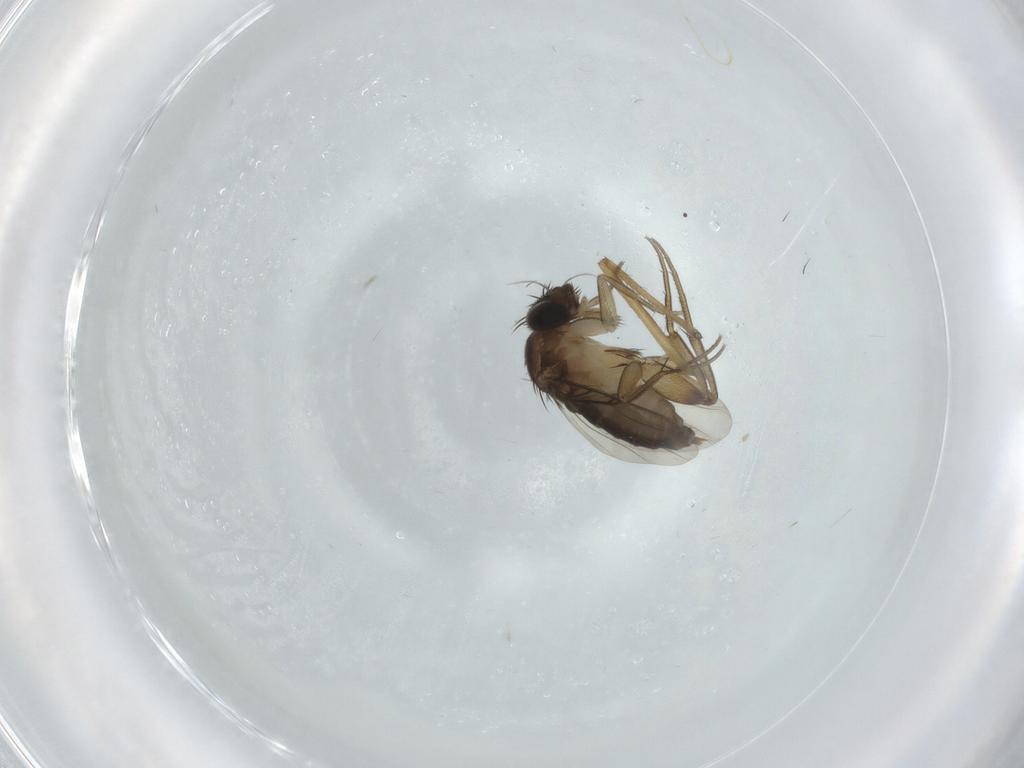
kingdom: Animalia
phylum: Arthropoda
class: Insecta
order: Diptera
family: Phoridae
